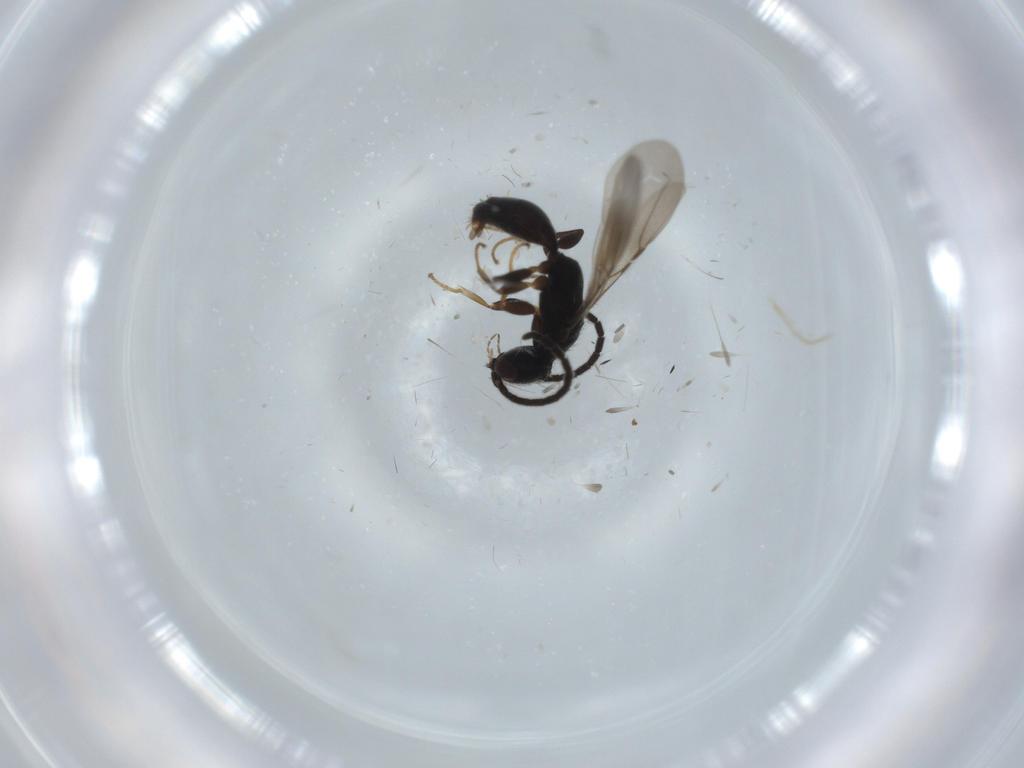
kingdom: Animalia
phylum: Arthropoda
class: Insecta
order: Hymenoptera
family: Bethylidae
